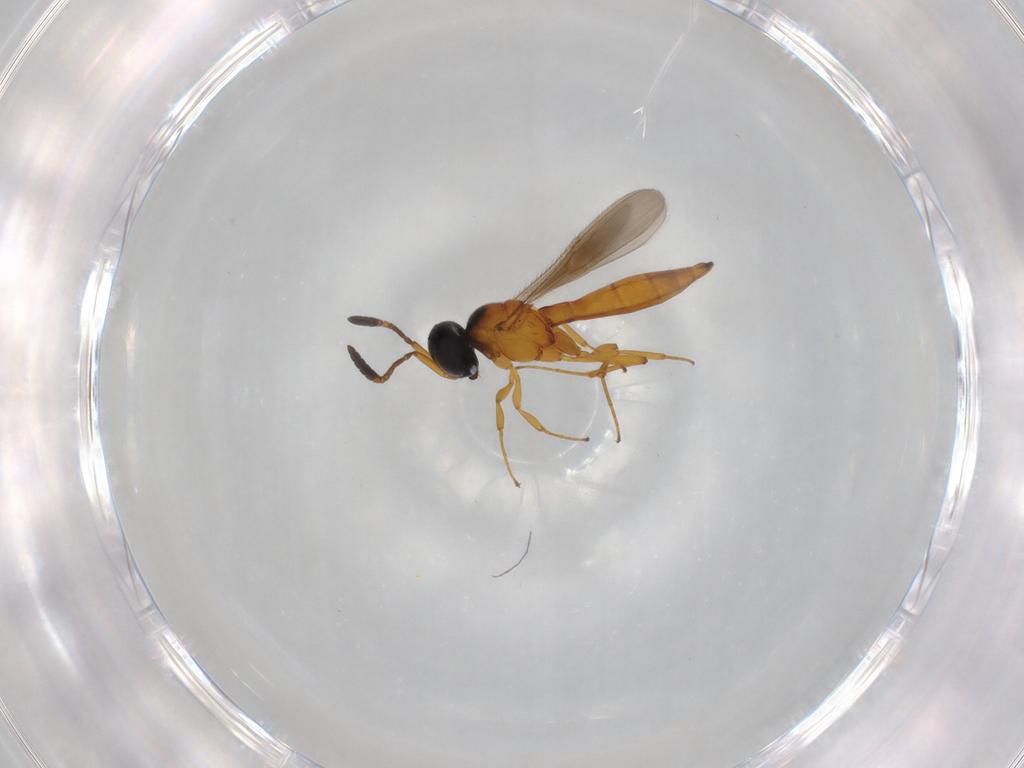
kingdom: Animalia
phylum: Arthropoda
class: Insecta
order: Hymenoptera
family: Scelionidae
